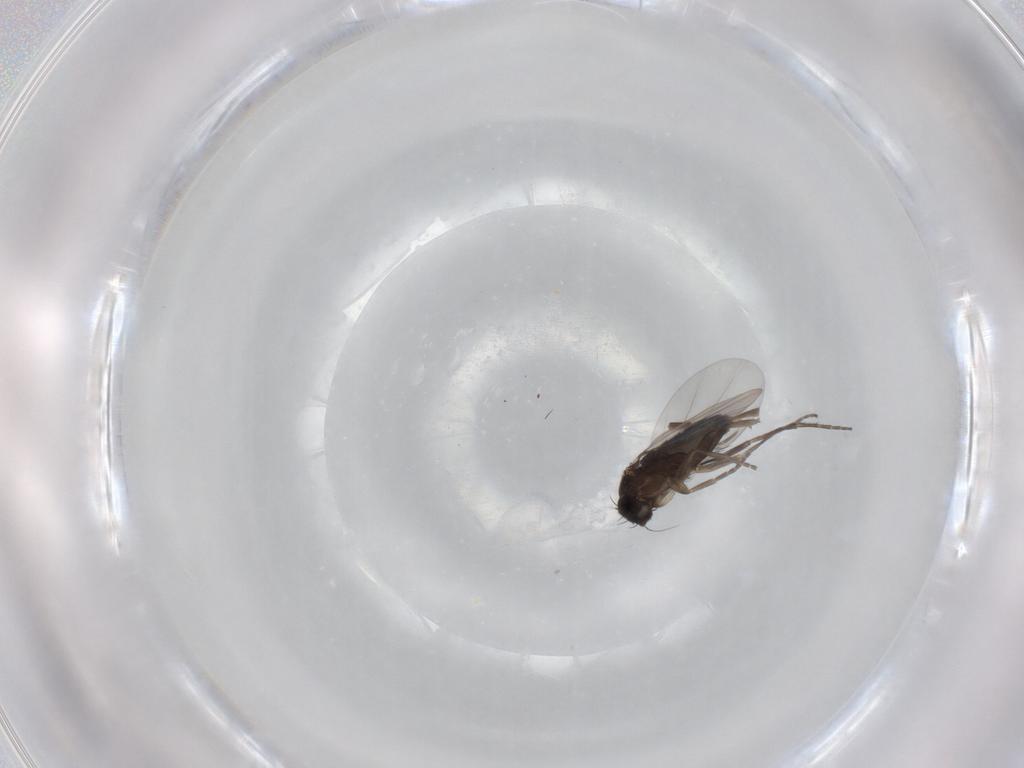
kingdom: Animalia
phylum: Arthropoda
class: Insecta
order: Diptera
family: Phoridae
